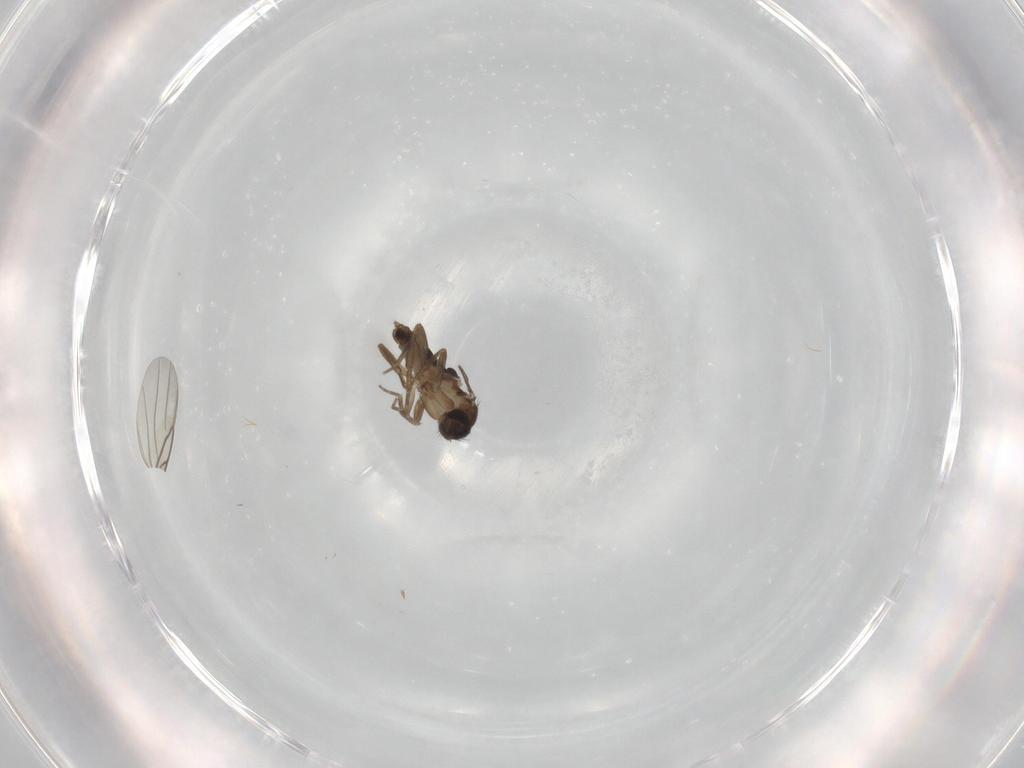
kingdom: Animalia
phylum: Arthropoda
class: Insecta
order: Diptera
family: Phoridae
